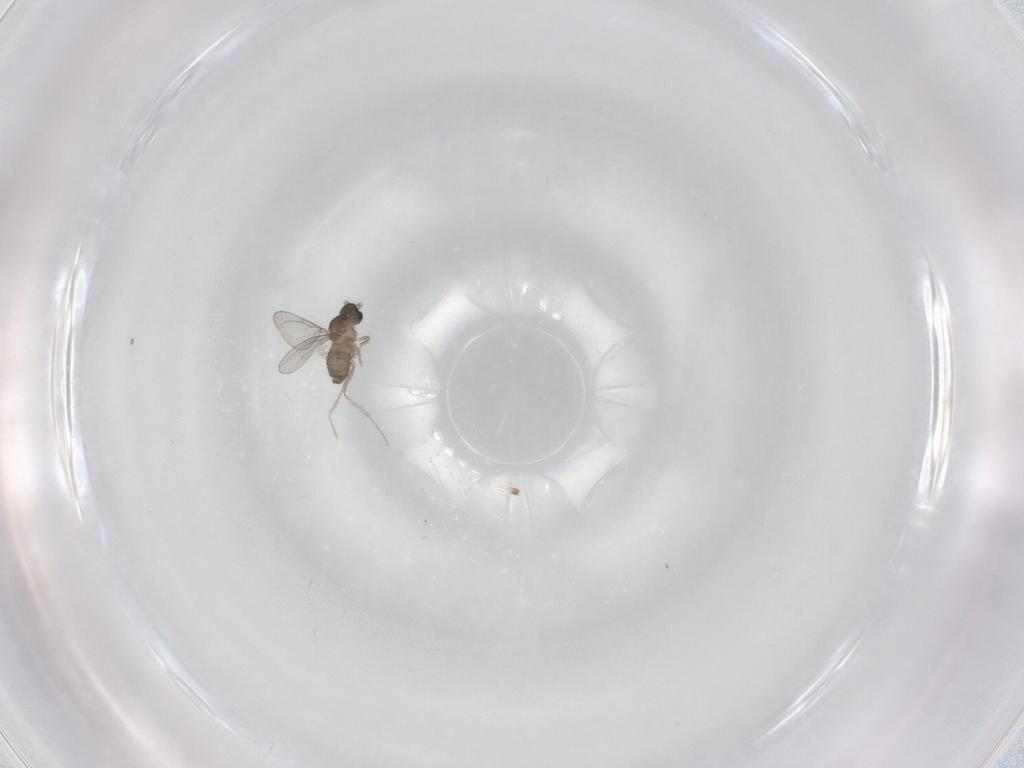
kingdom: Animalia
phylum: Arthropoda
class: Insecta
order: Diptera
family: Cecidomyiidae
